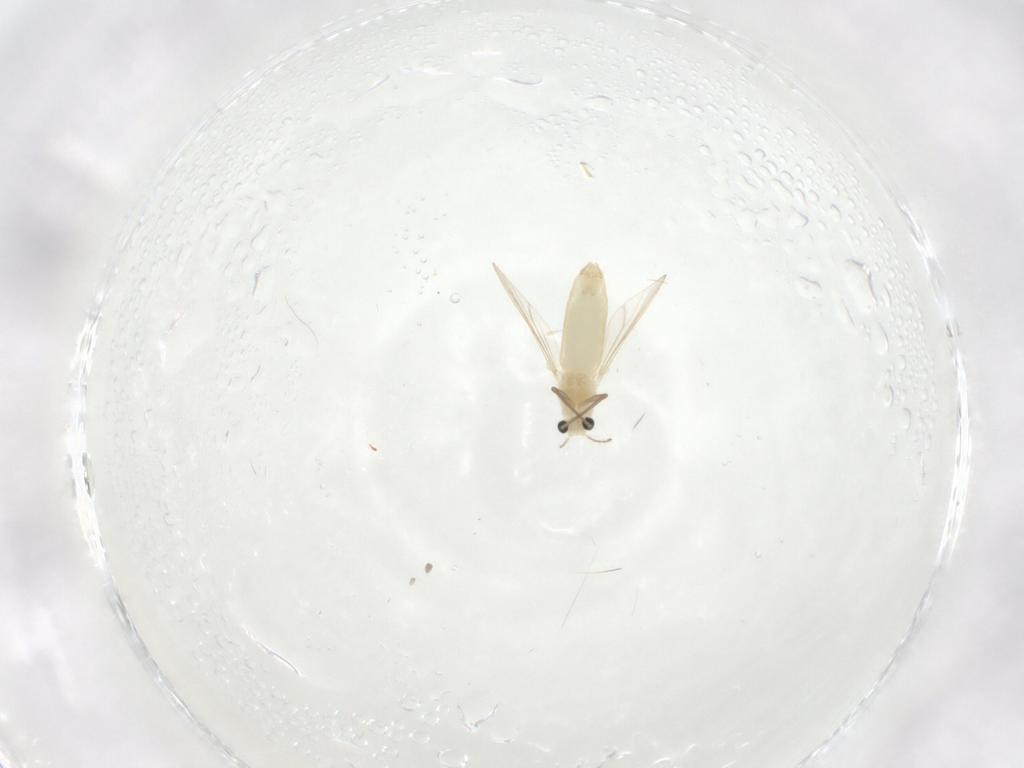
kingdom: Animalia
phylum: Arthropoda
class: Insecta
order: Diptera
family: Chironomidae
